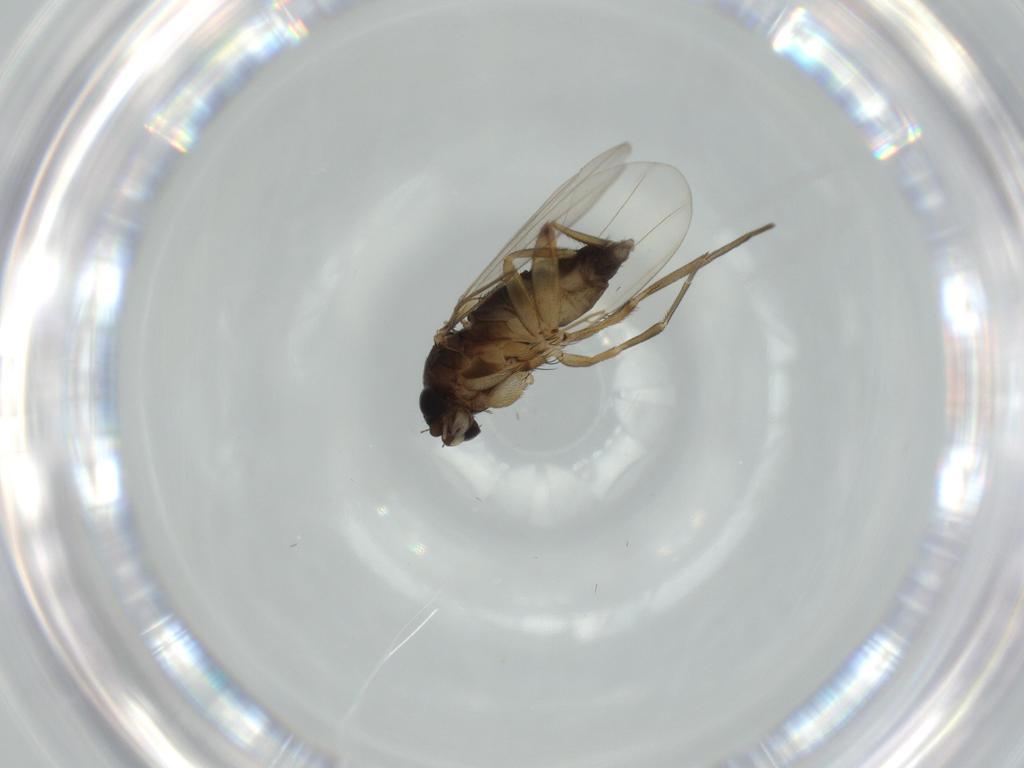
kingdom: Animalia
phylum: Arthropoda
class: Insecta
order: Diptera
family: Phoridae
